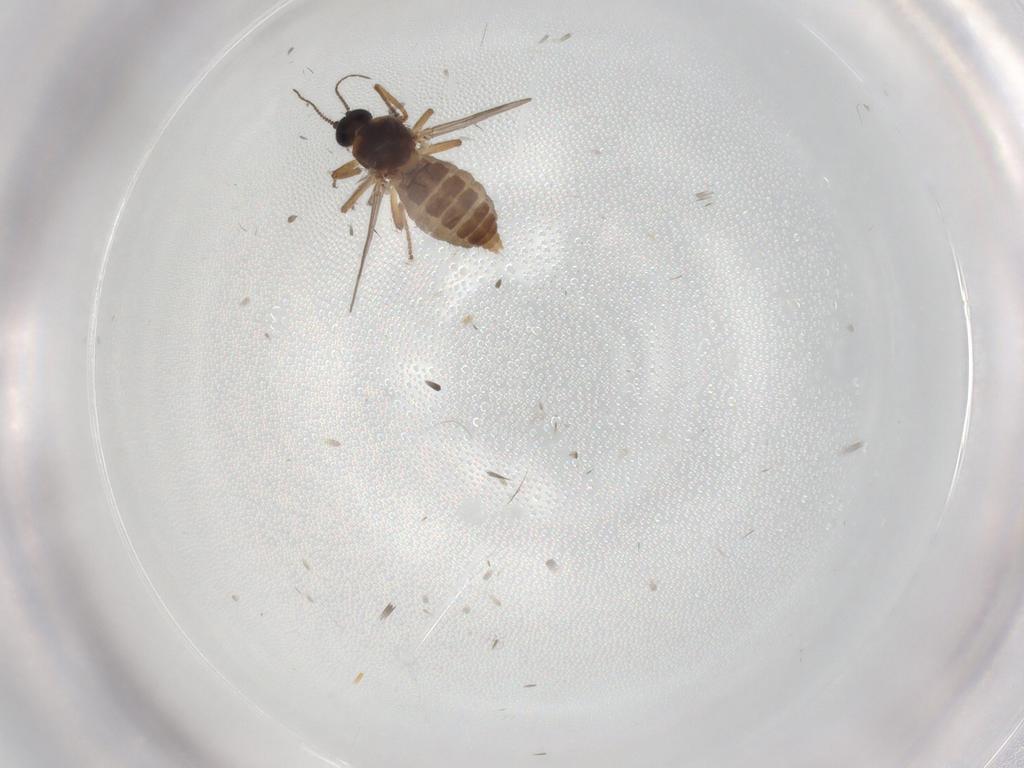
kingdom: Animalia
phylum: Arthropoda
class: Insecta
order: Diptera
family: Ceratopogonidae
